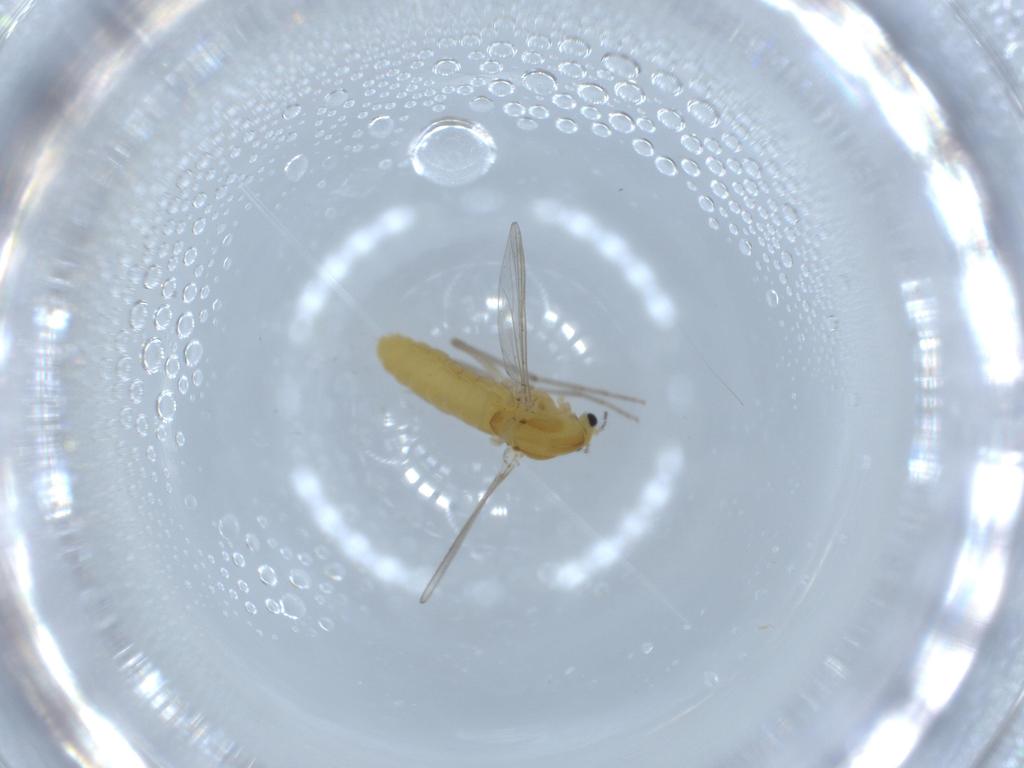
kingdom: Animalia
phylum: Arthropoda
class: Insecta
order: Diptera
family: Chironomidae
